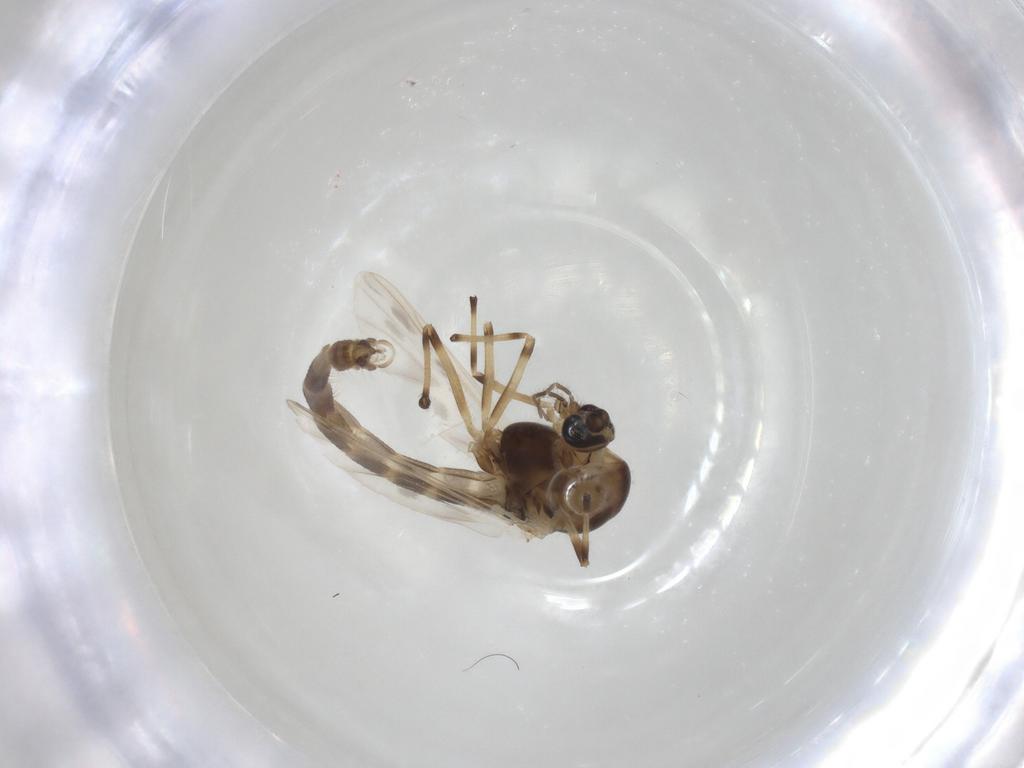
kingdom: Animalia
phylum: Arthropoda
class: Insecta
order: Diptera
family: Chironomidae
